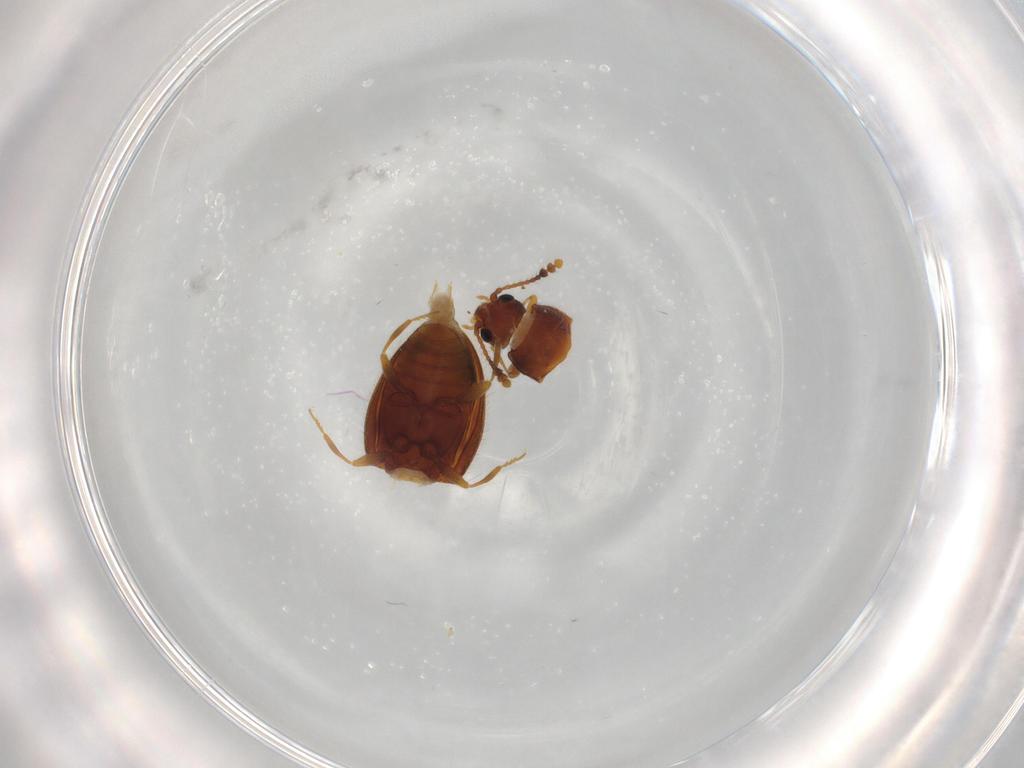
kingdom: Animalia
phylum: Arthropoda
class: Insecta
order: Coleoptera
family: Erotylidae
